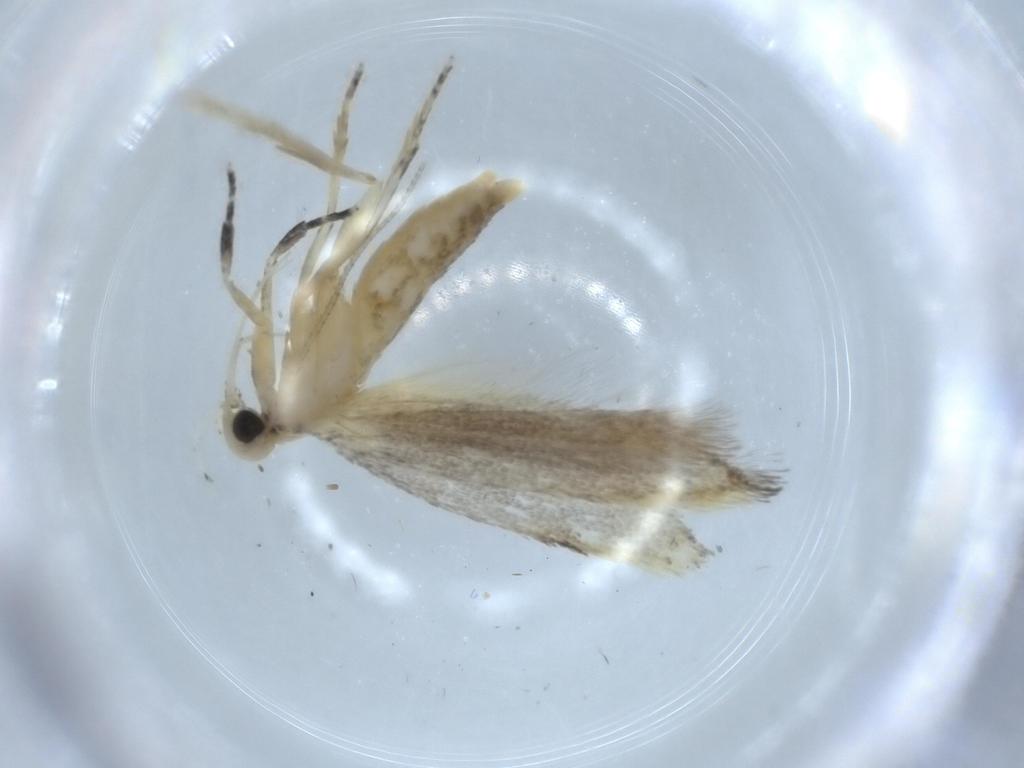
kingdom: Animalia
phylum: Arthropoda
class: Insecta
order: Lepidoptera
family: Autostichidae
